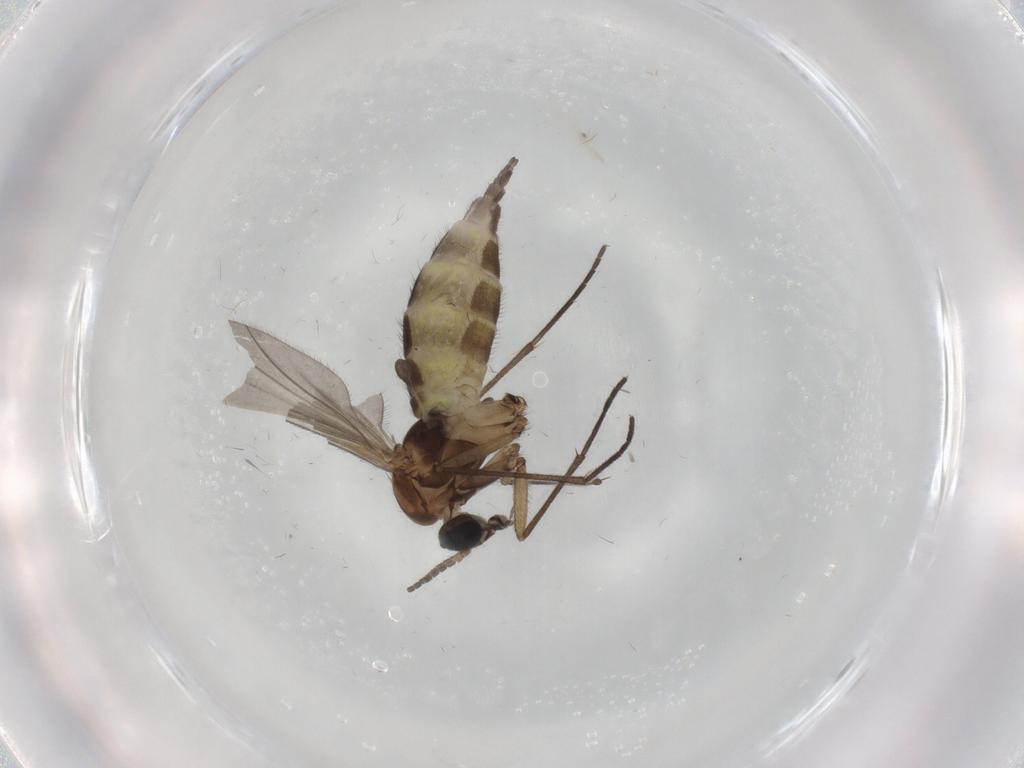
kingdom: Animalia
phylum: Arthropoda
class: Insecta
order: Diptera
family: Sciaridae
